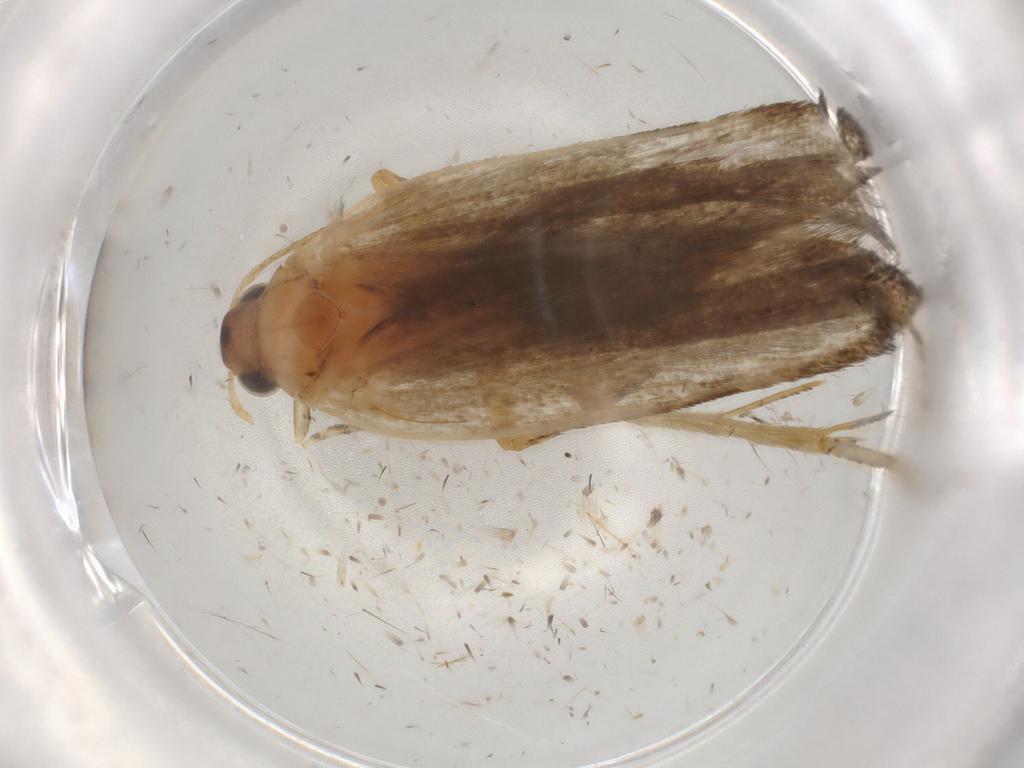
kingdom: Animalia
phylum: Arthropoda
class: Insecta
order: Lepidoptera
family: Gelechiidae
